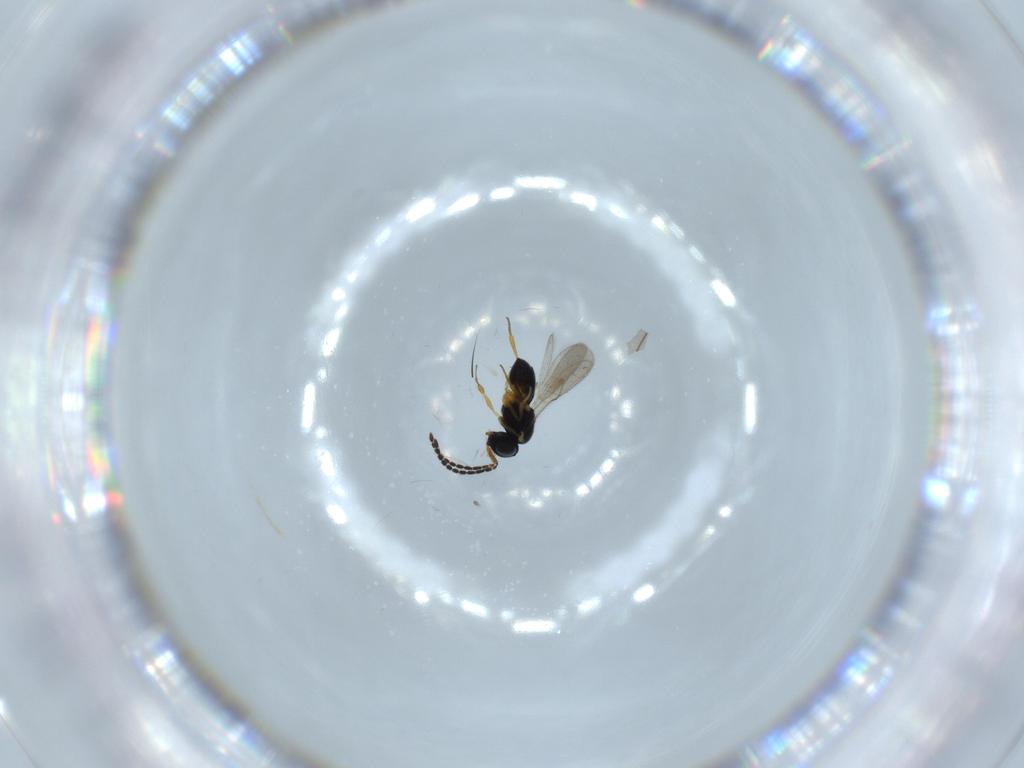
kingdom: Animalia
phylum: Arthropoda
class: Insecta
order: Hymenoptera
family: Scelionidae
